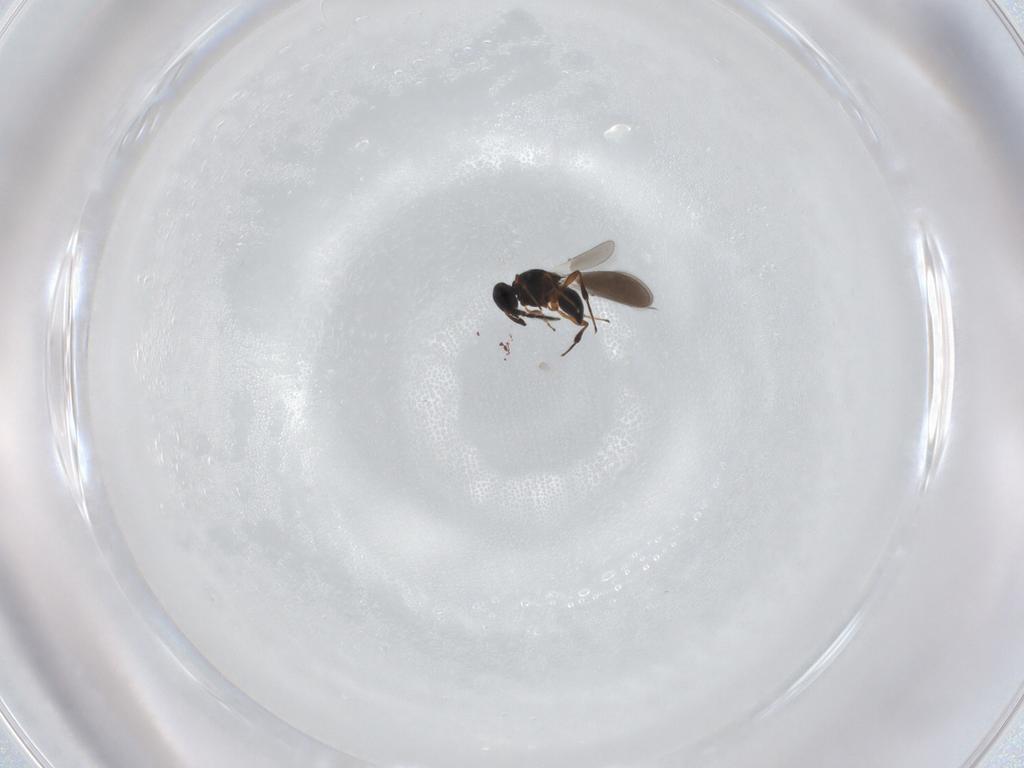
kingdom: Animalia
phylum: Arthropoda
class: Insecta
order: Hymenoptera
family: Platygastridae
